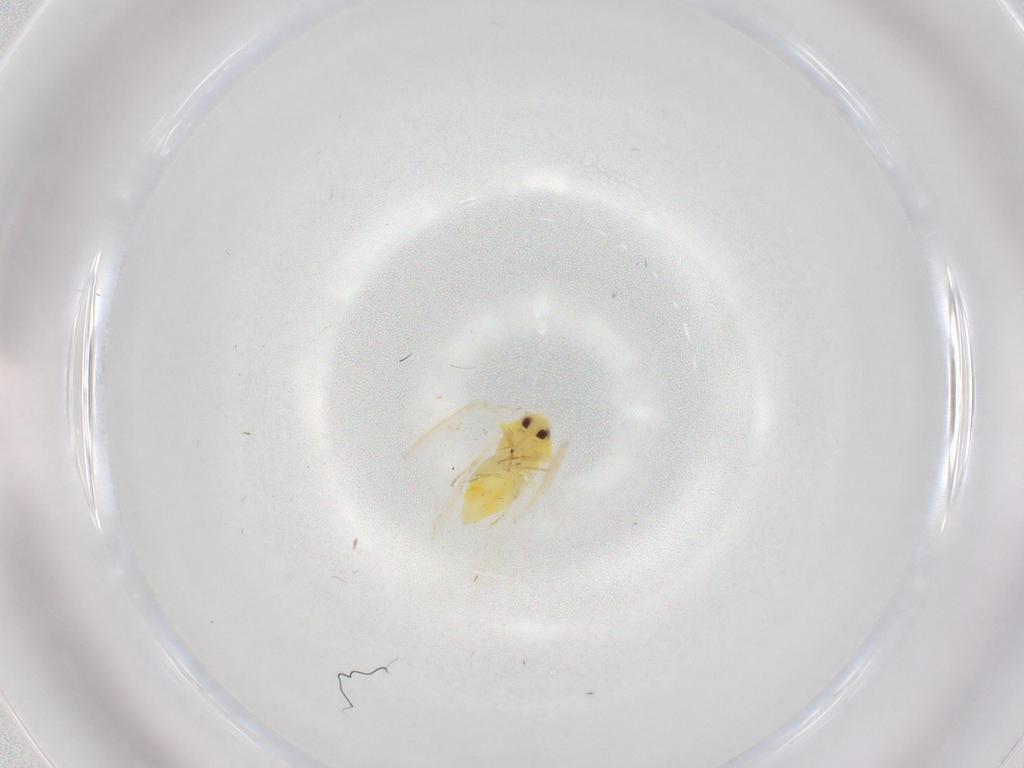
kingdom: Animalia
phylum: Arthropoda
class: Insecta
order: Hemiptera
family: Aleyrodidae
